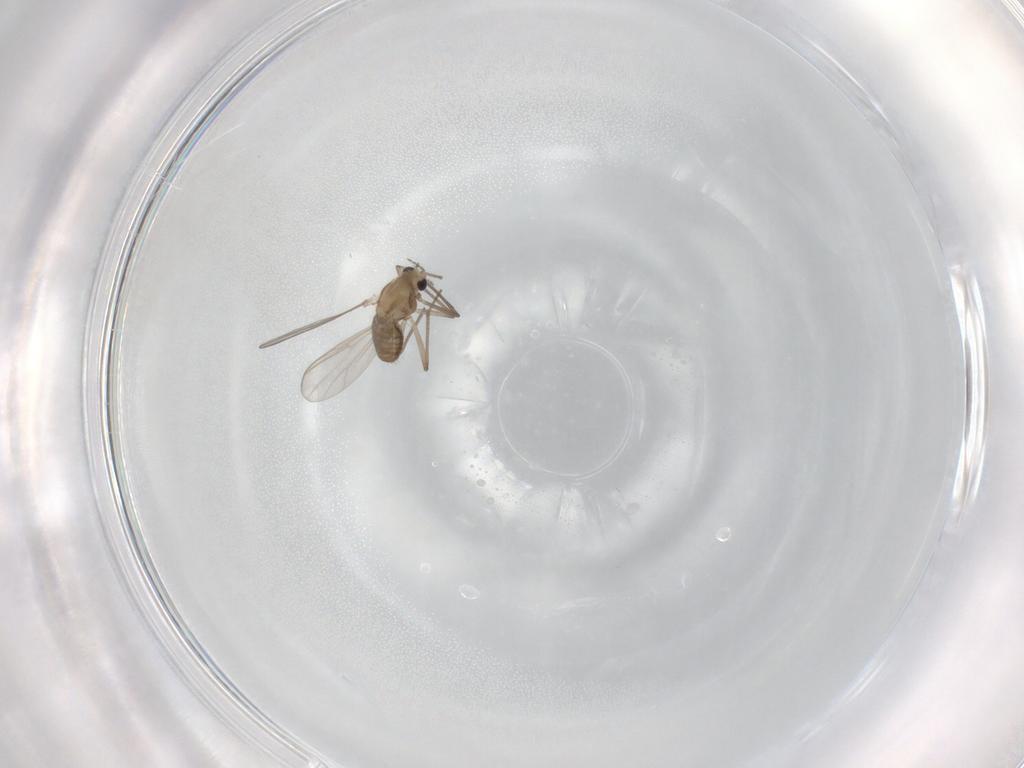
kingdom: Animalia
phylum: Arthropoda
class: Insecta
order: Diptera
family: Chironomidae
